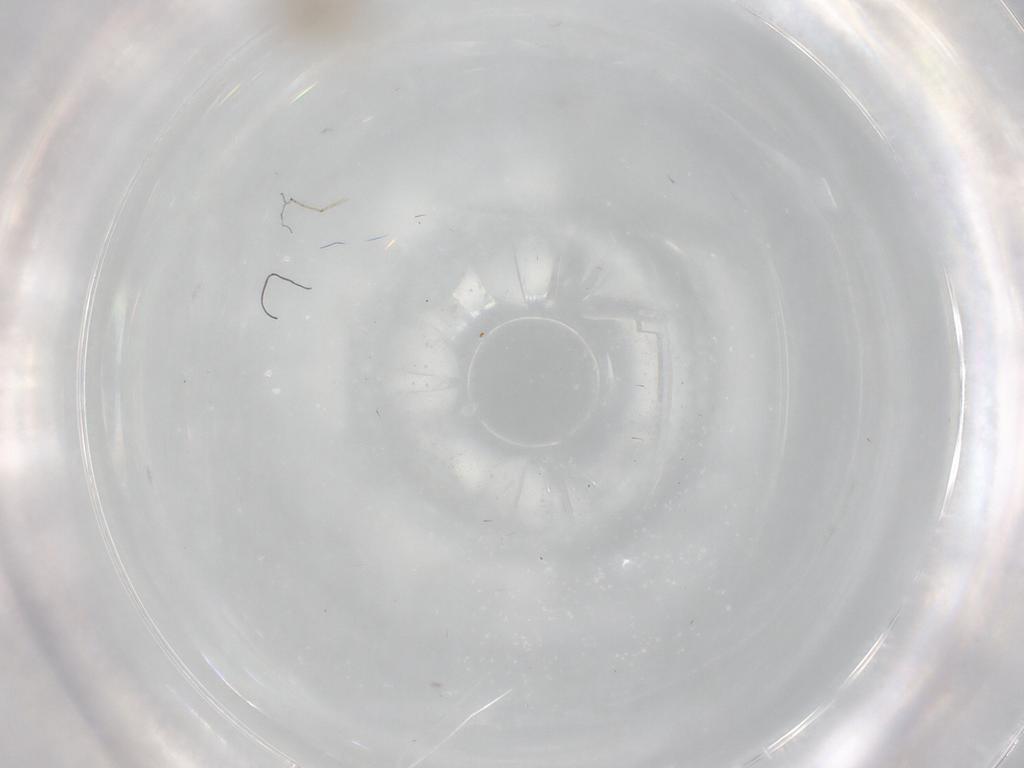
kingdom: Animalia
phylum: Arthropoda
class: Insecta
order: Diptera
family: Ceratopogonidae
